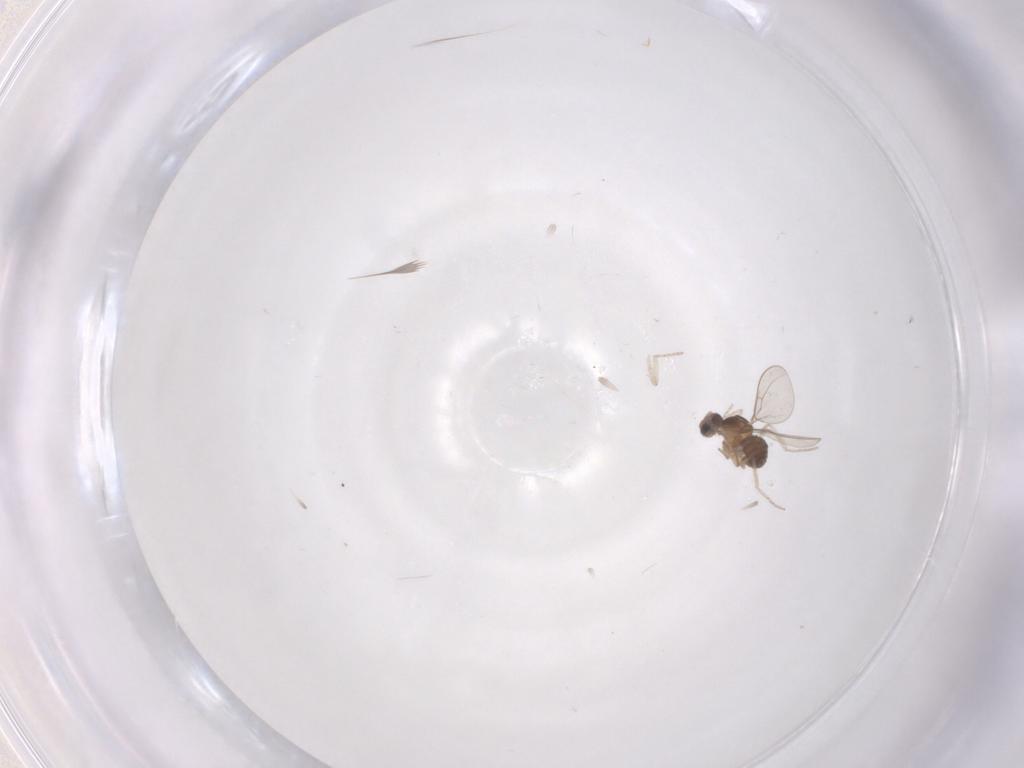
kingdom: Animalia
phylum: Arthropoda
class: Insecta
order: Diptera
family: Cecidomyiidae
